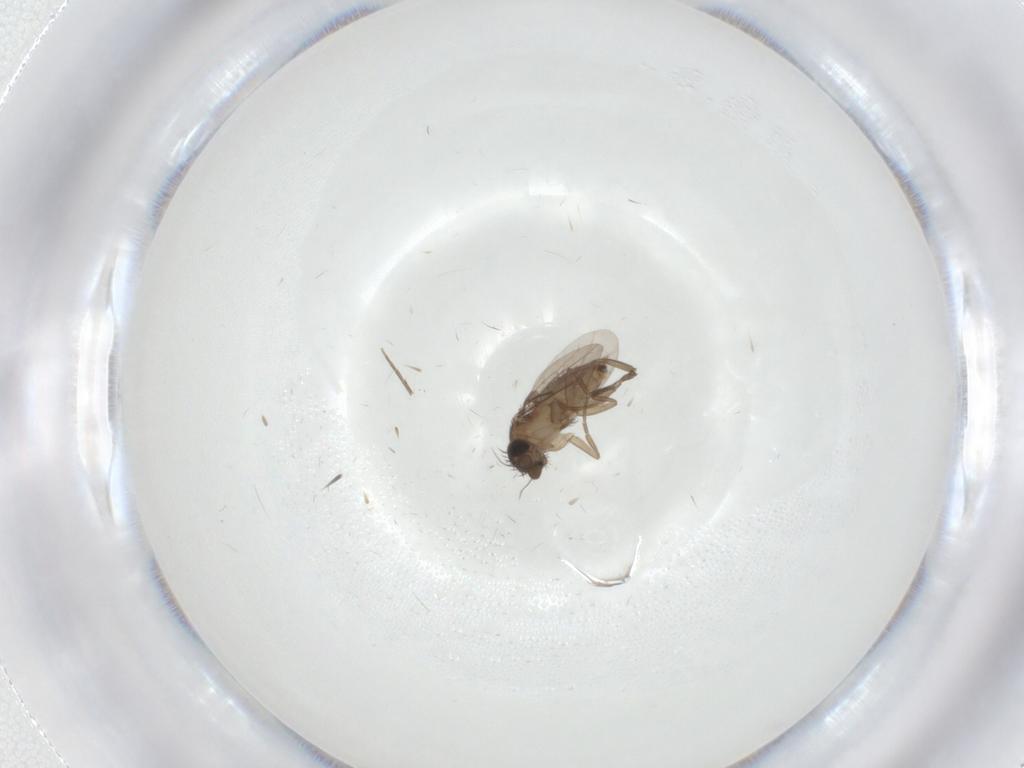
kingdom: Animalia
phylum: Arthropoda
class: Insecta
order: Diptera
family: Phoridae
